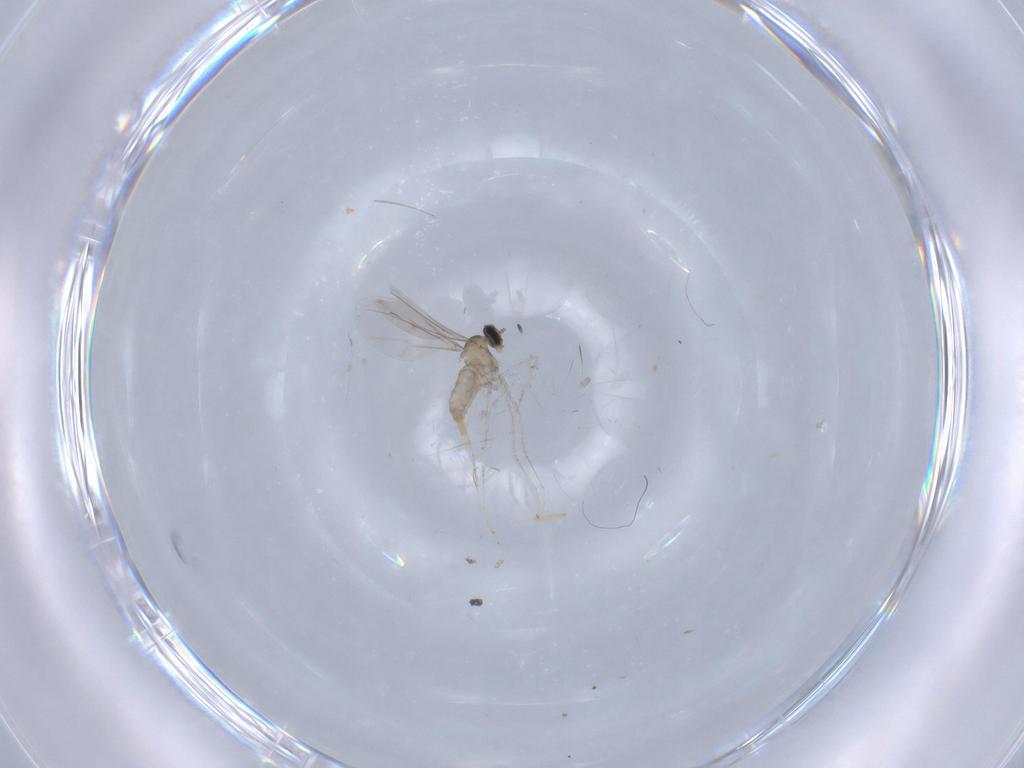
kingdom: Animalia
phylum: Arthropoda
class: Insecta
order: Diptera
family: Cecidomyiidae
